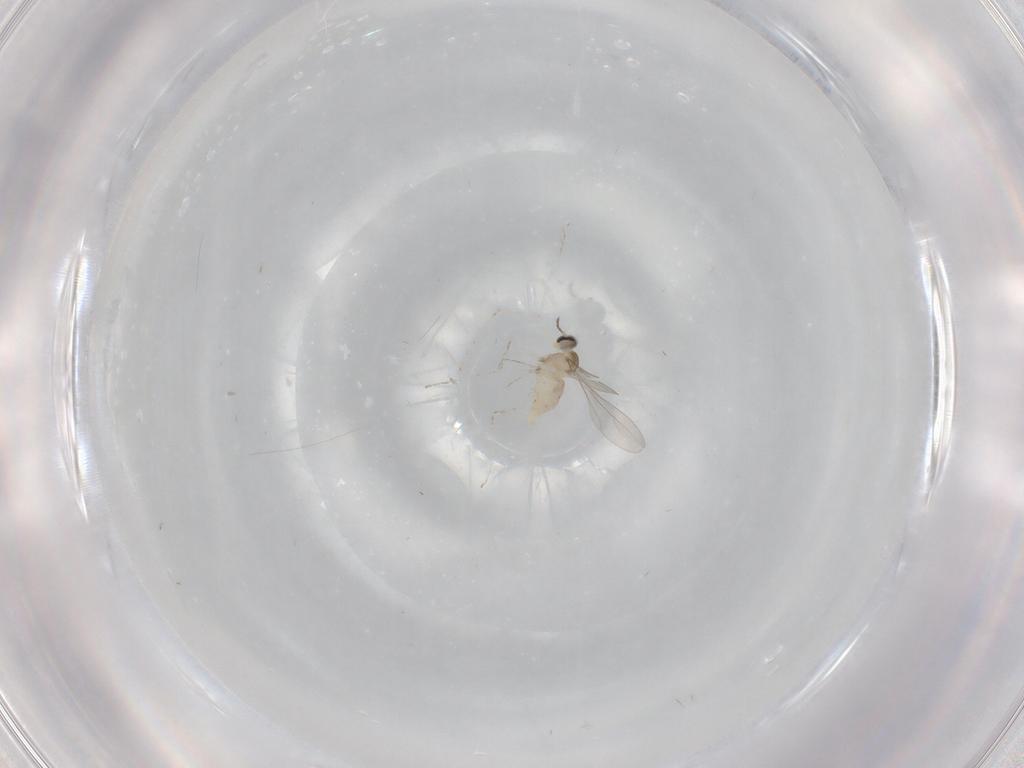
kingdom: Animalia
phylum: Arthropoda
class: Insecta
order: Diptera
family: Cecidomyiidae
